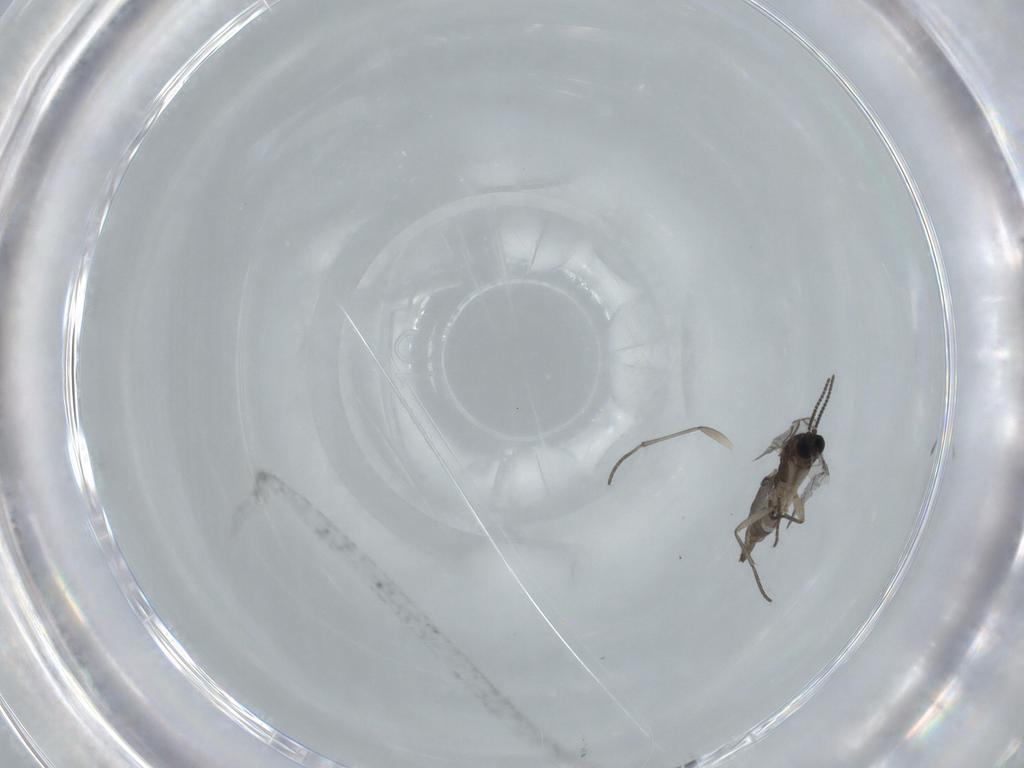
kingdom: Animalia
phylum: Arthropoda
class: Insecta
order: Diptera
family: Sciaridae
